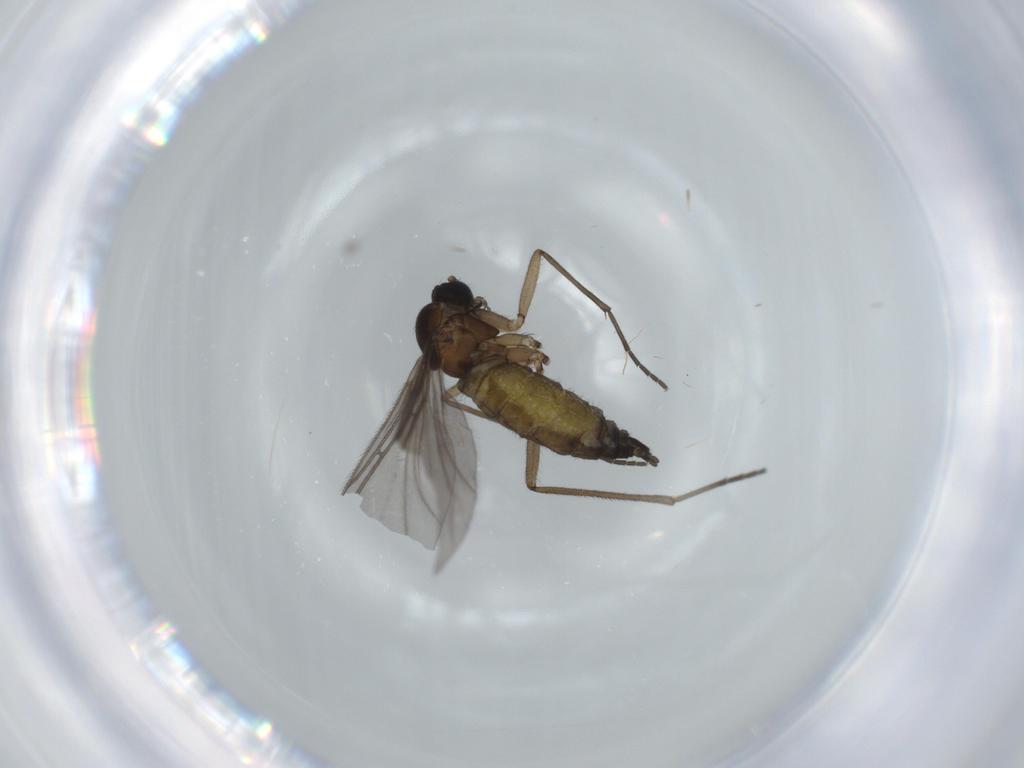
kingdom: Animalia
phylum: Arthropoda
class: Insecta
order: Diptera
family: Sciaridae
